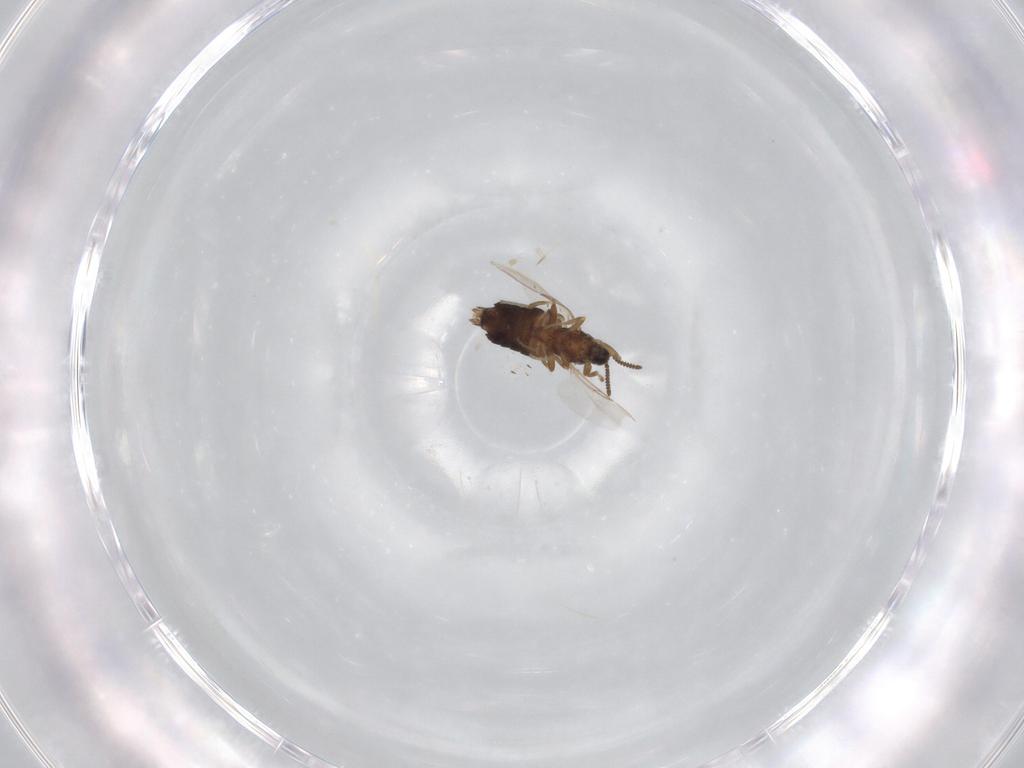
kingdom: Animalia
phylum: Arthropoda
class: Insecta
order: Diptera
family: Scatopsidae
